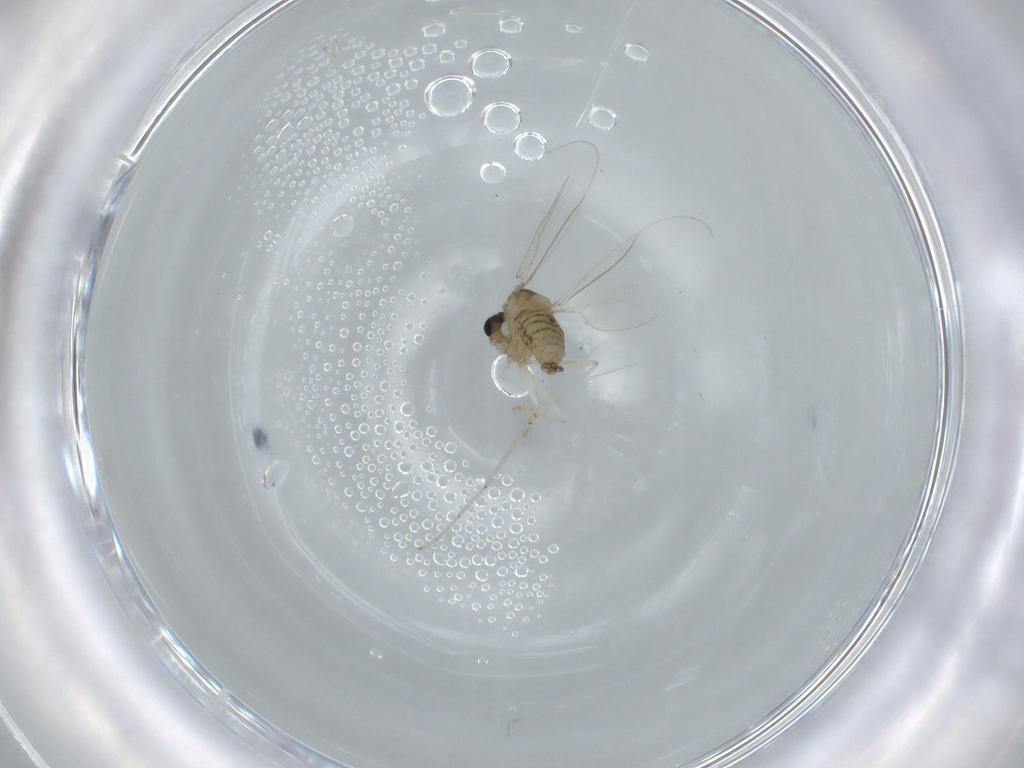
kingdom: Animalia
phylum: Arthropoda
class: Insecta
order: Diptera
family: Cecidomyiidae
